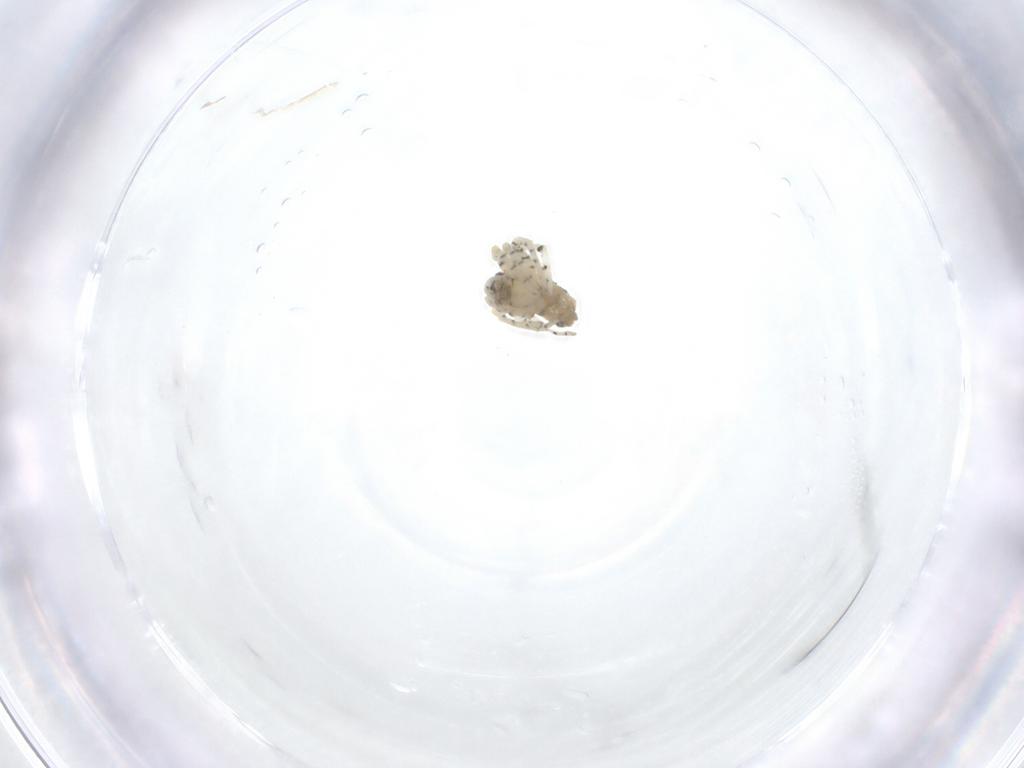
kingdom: Animalia
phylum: Arthropoda
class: Arachnida
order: Araneae
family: Theridiidae
